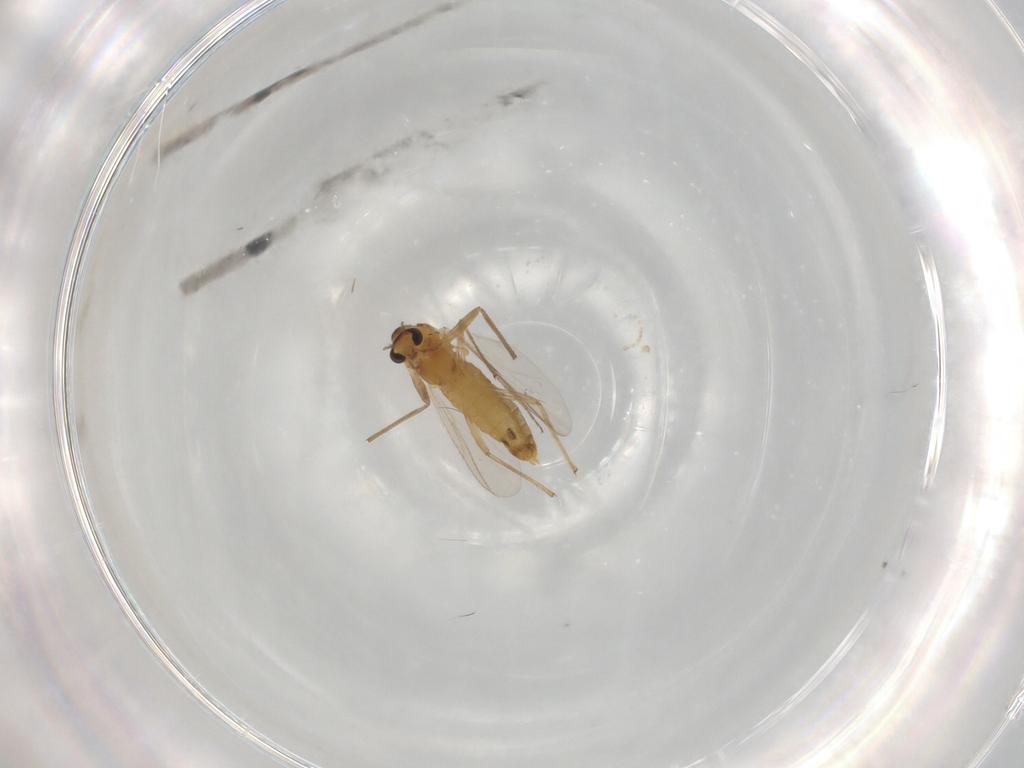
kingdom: Animalia
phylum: Arthropoda
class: Insecta
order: Diptera
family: Chironomidae
